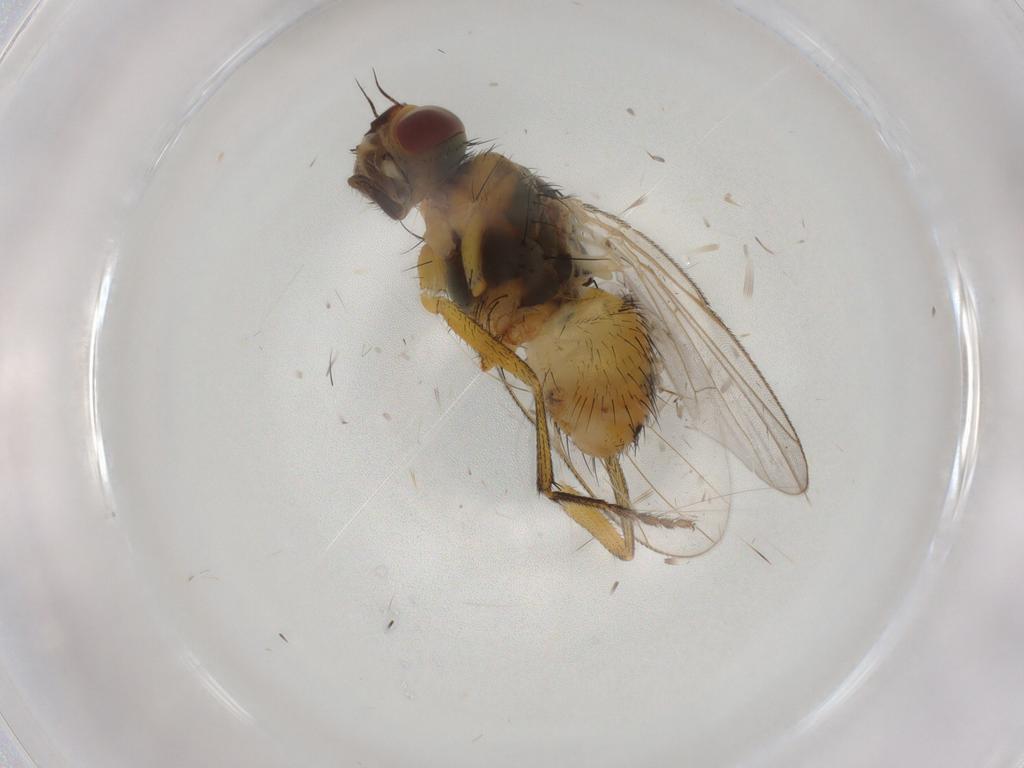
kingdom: Animalia
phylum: Arthropoda
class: Insecta
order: Diptera
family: Muscidae
